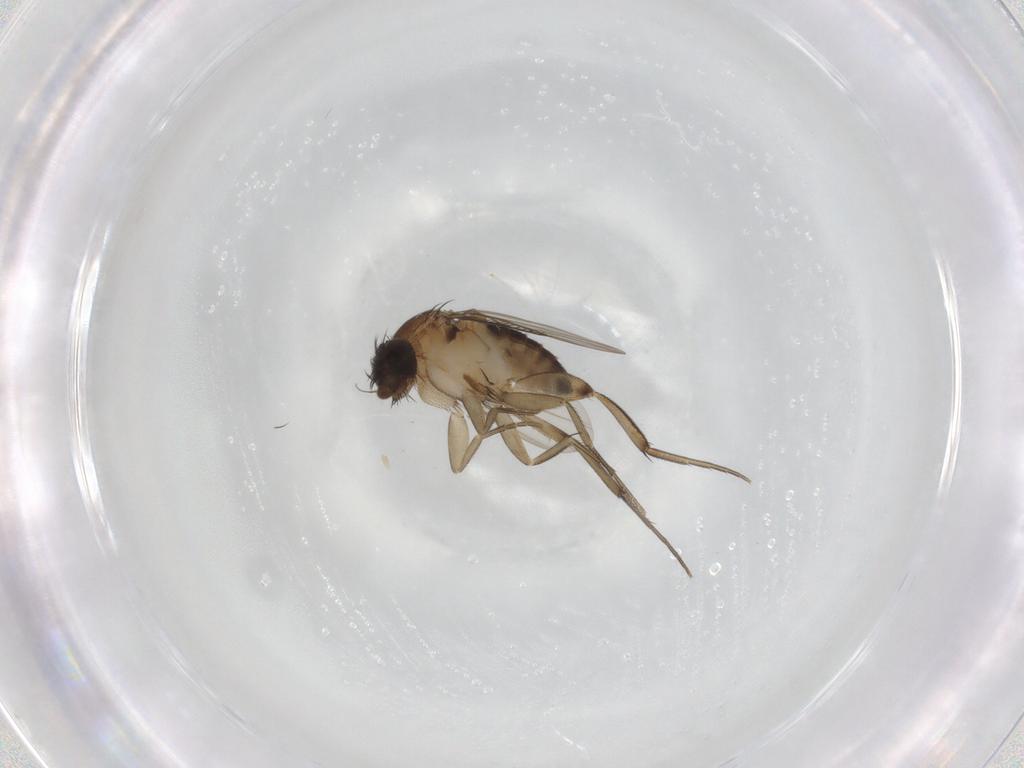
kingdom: Animalia
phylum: Arthropoda
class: Insecta
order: Diptera
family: Phoridae
